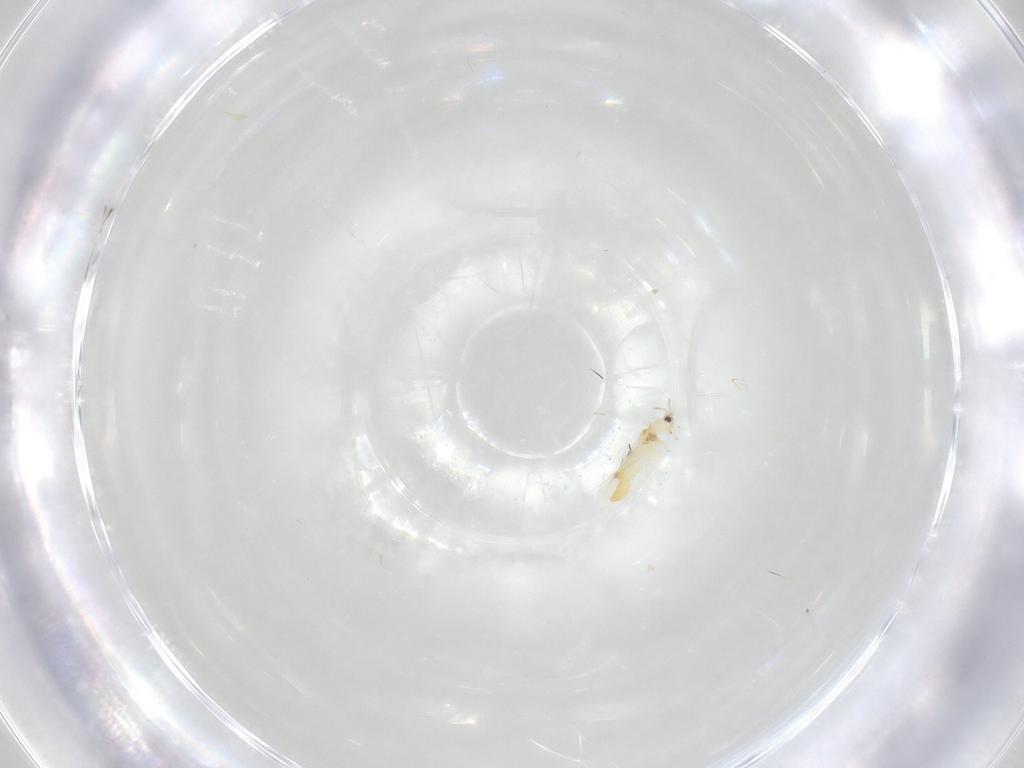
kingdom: Animalia
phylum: Arthropoda
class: Insecta
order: Thysanoptera
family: Thripidae
